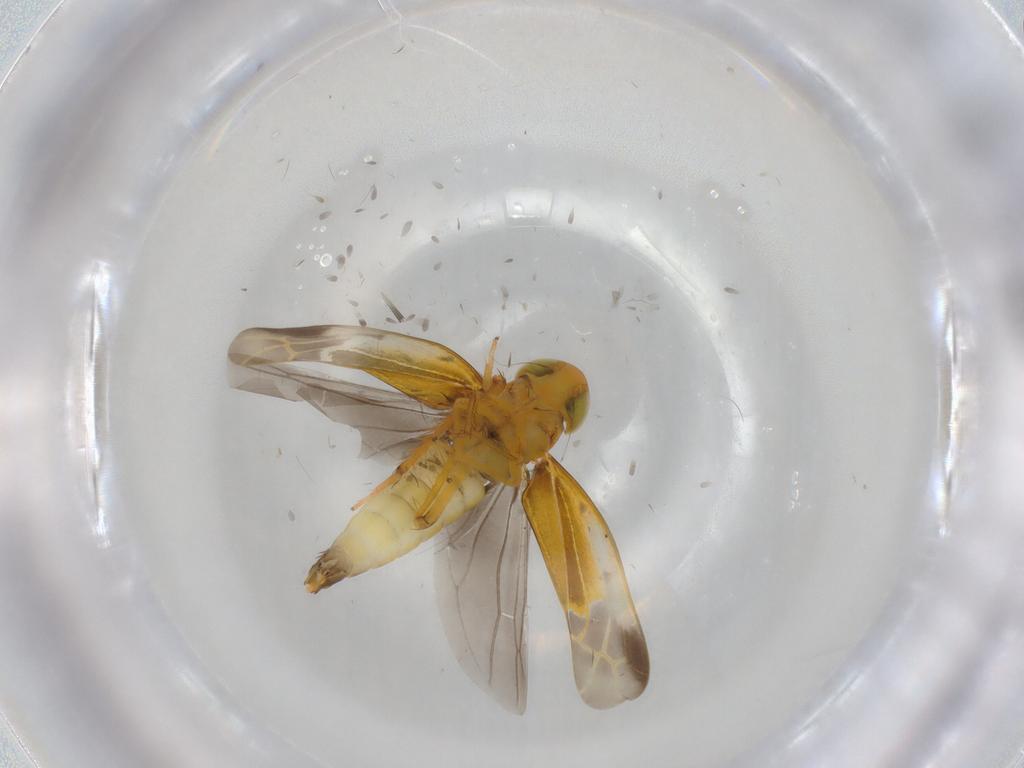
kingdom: Animalia
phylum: Arthropoda
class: Insecta
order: Hemiptera
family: Cicadellidae
